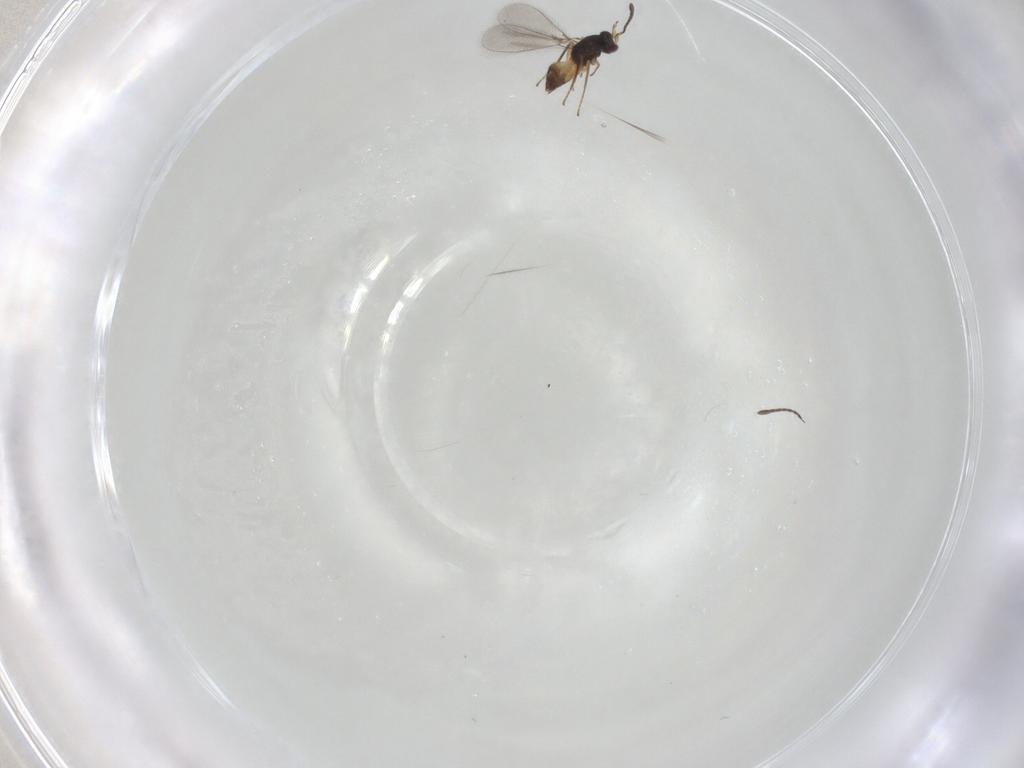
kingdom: Animalia
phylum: Arthropoda
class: Insecta
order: Hymenoptera
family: Mymaridae
